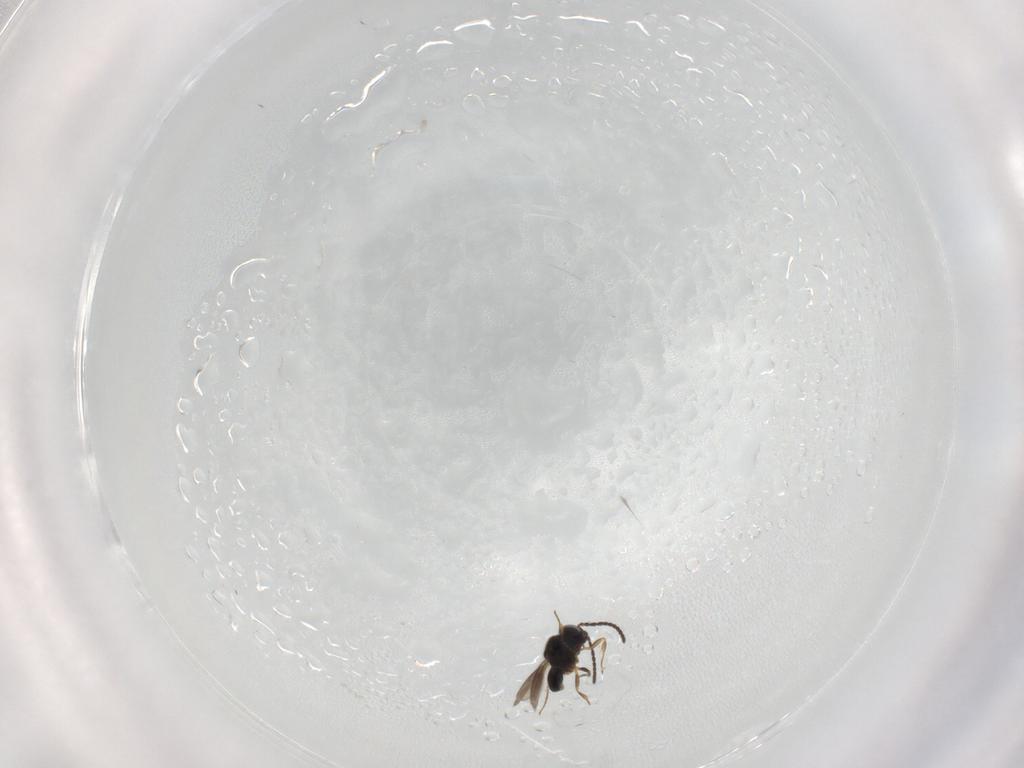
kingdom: Animalia
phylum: Arthropoda
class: Insecta
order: Hymenoptera
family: Scelionidae
